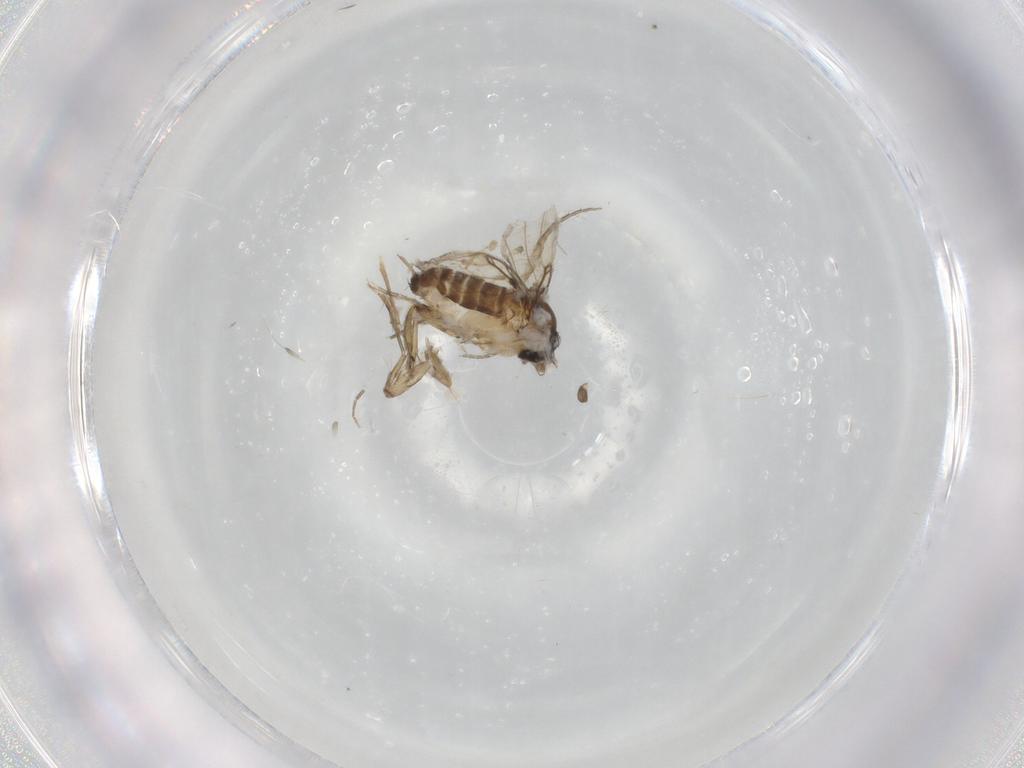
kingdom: Animalia
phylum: Arthropoda
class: Insecta
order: Diptera
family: Phoridae
